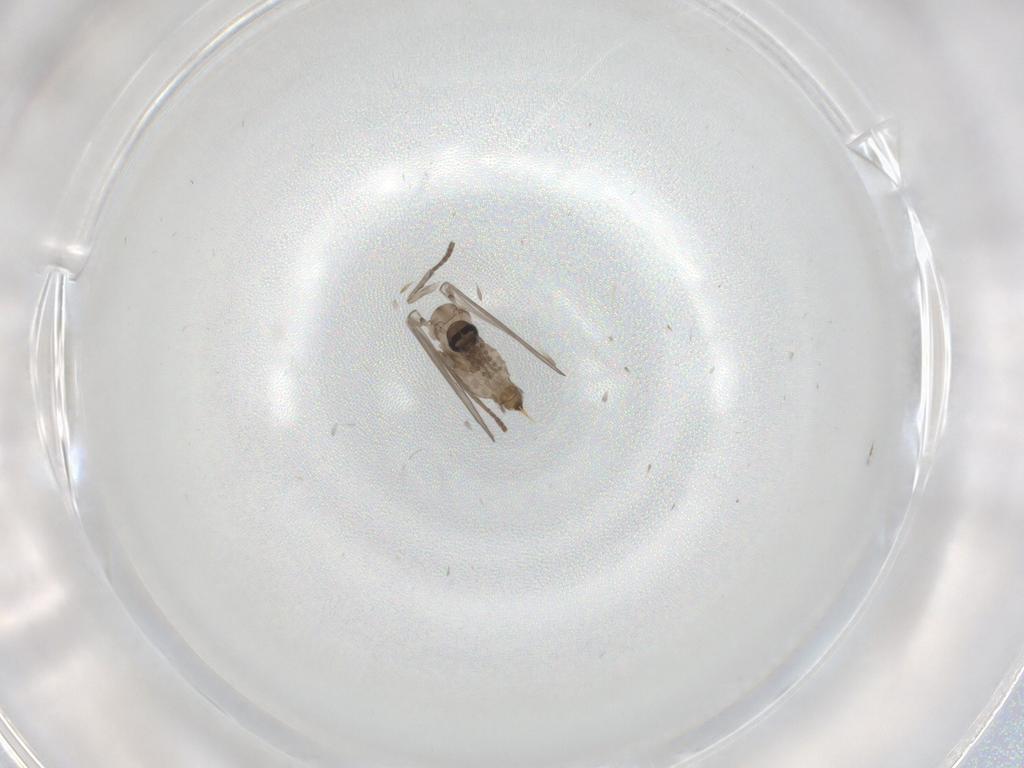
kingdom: Animalia
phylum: Arthropoda
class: Insecta
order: Diptera
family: Psychodidae
